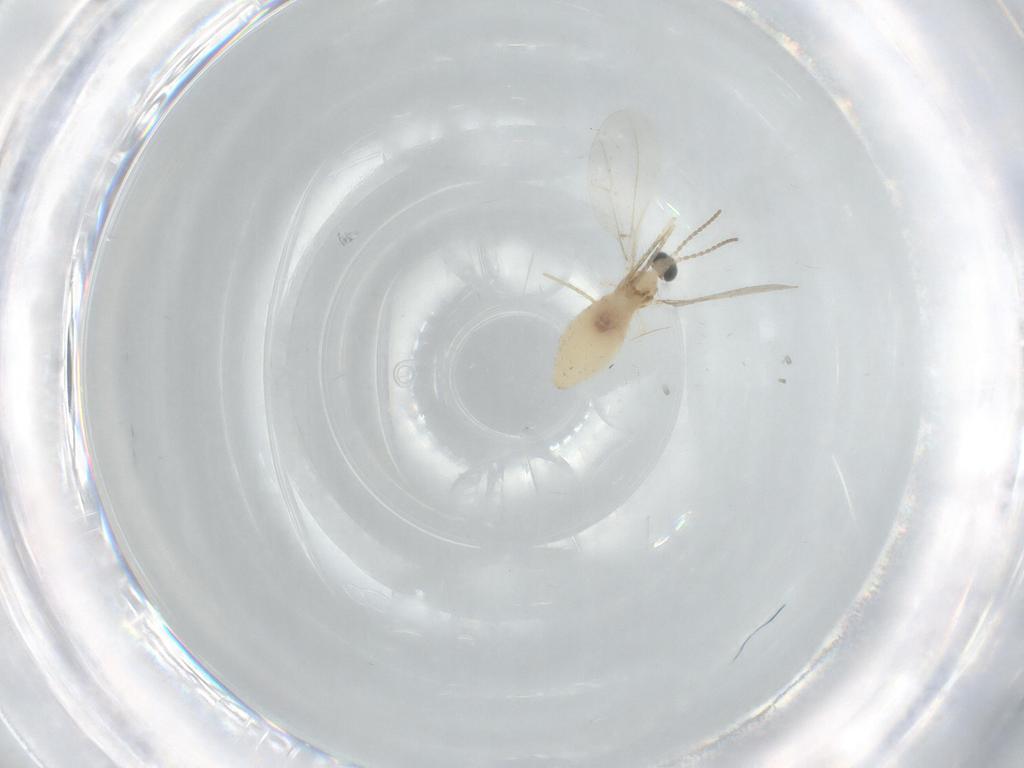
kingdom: Animalia
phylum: Arthropoda
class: Insecta
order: Diptera
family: Cecidomyiidae
